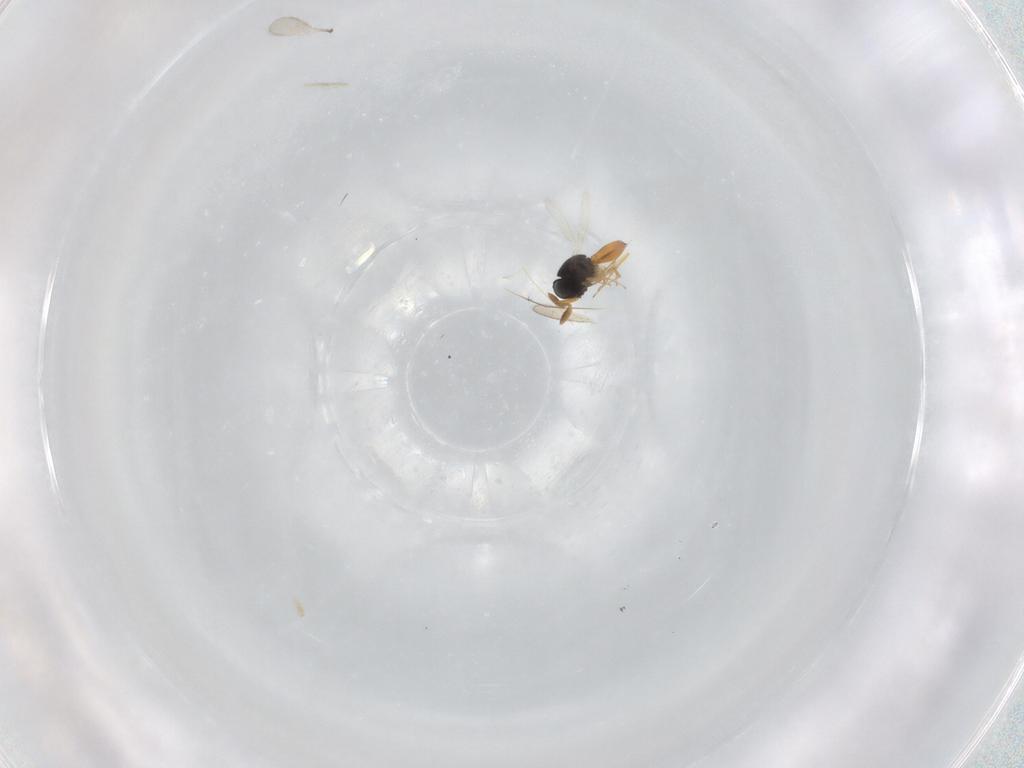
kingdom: Animalia
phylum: Arthropoda
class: Insecta
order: Hymenoptera
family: Scelionidae
